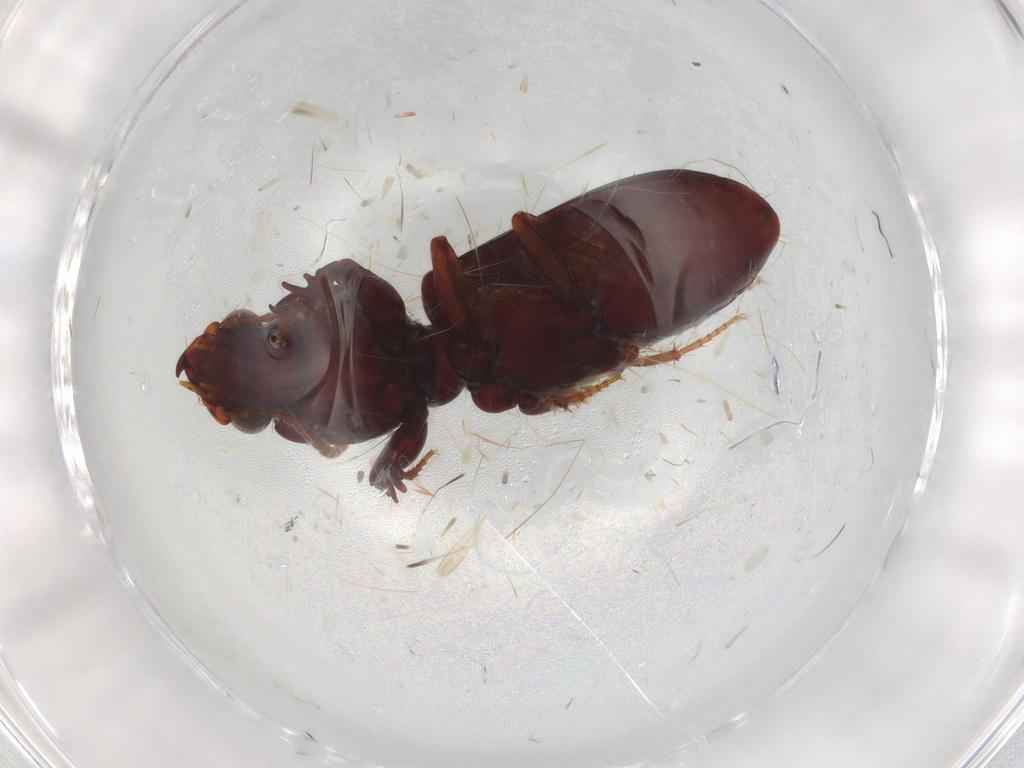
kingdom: Animalia
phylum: Arthropoda
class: Insecta
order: Coleoptera
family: Carabidae
